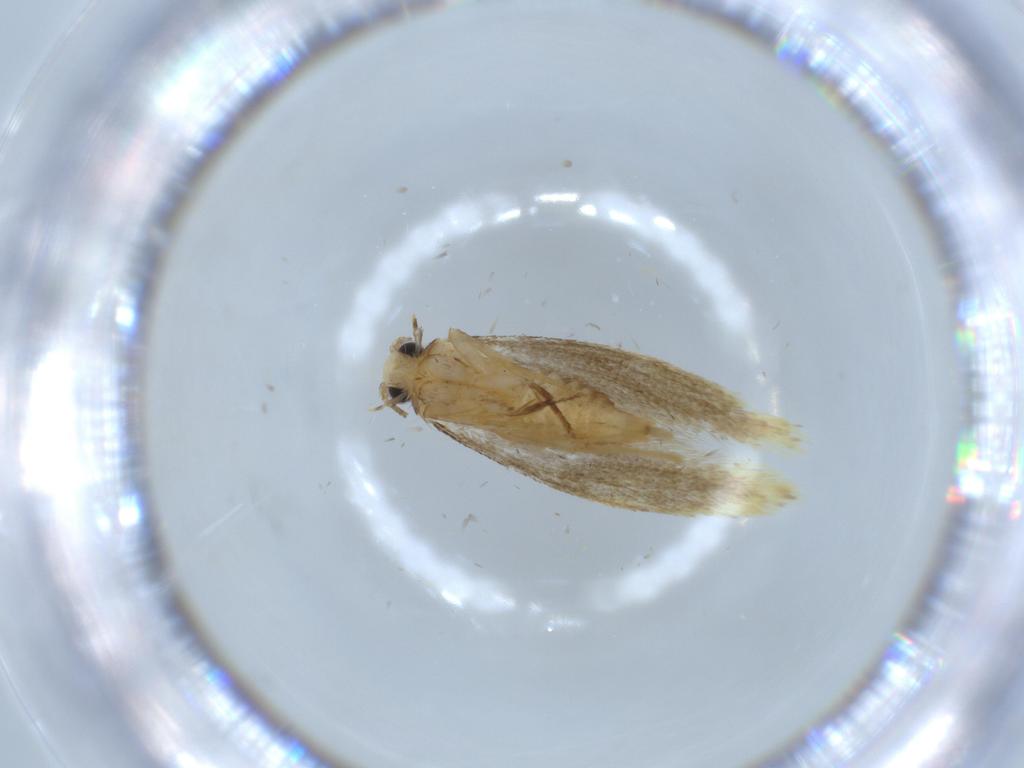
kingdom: Animalia
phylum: Arthropoda
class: Insecta
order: Lepidoptera
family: Tineidae
